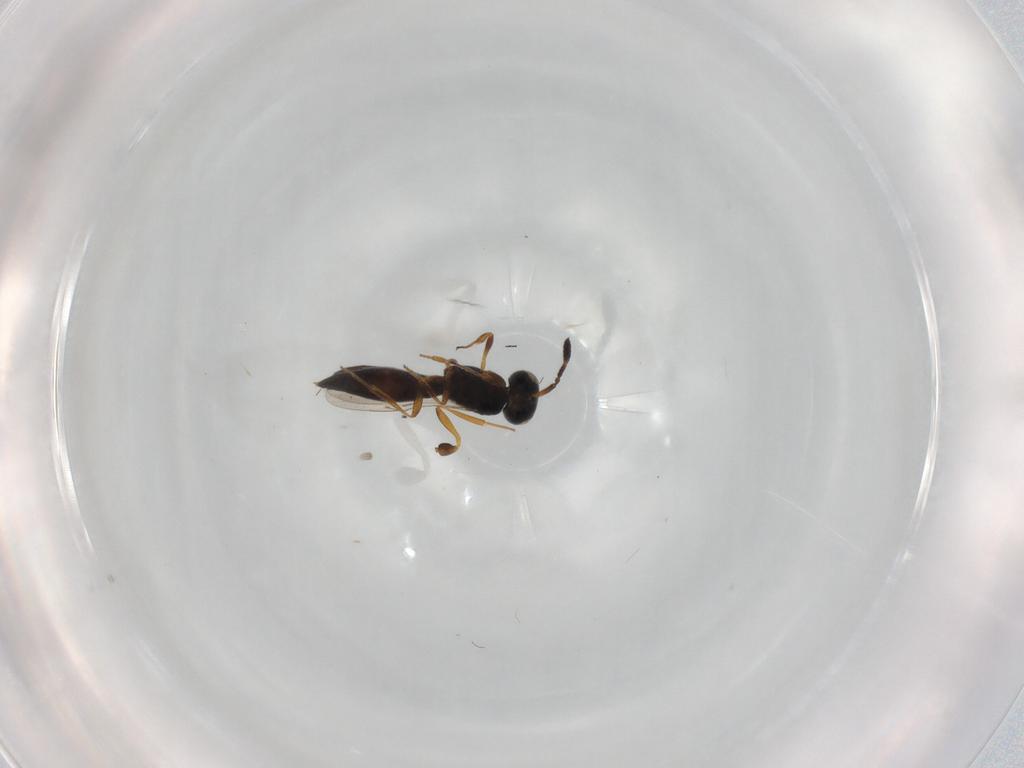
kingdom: Animalia
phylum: Arthropoda
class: Insecta
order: Hymenoptera
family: Scelionidae
